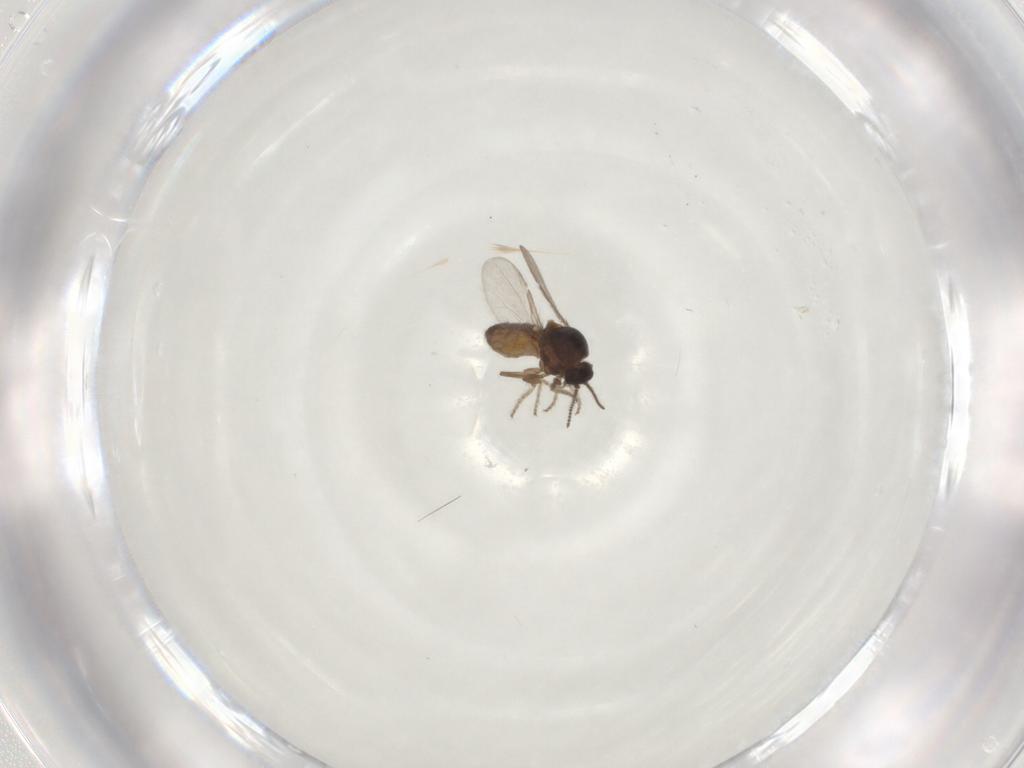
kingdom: Animalia
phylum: Arthropoda
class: Insecta
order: Diptera
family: Ceratopogonidae
